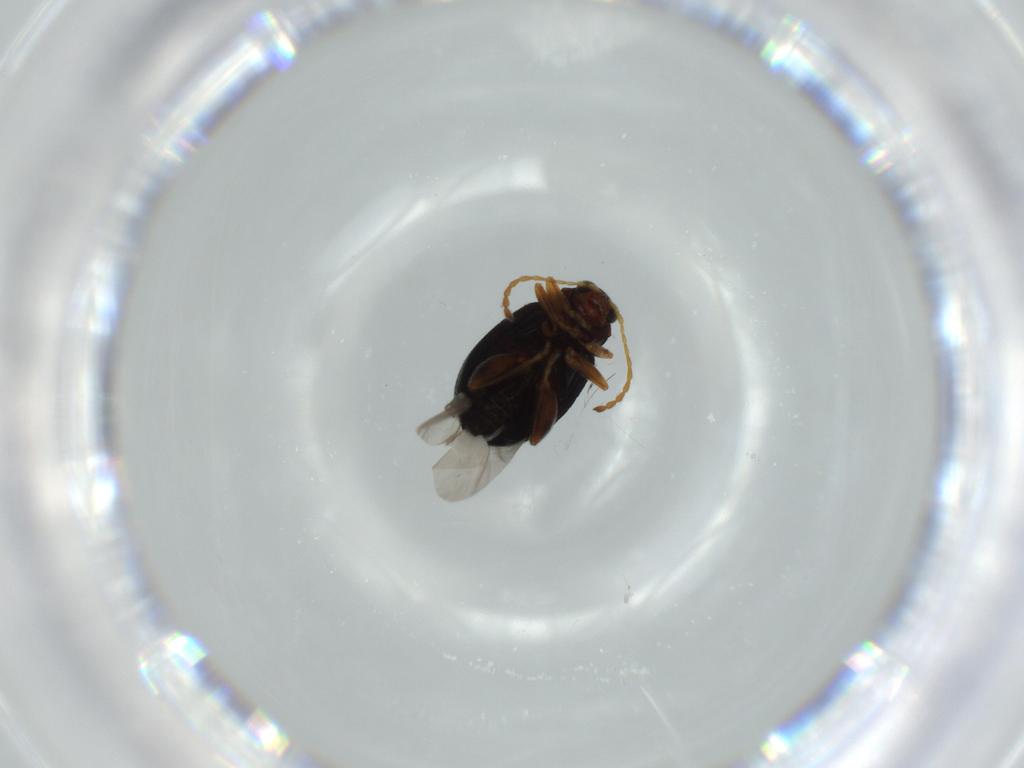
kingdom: Animalia
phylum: Arthropoda
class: Insecta
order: Coleoptera
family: Chrysomelidae
